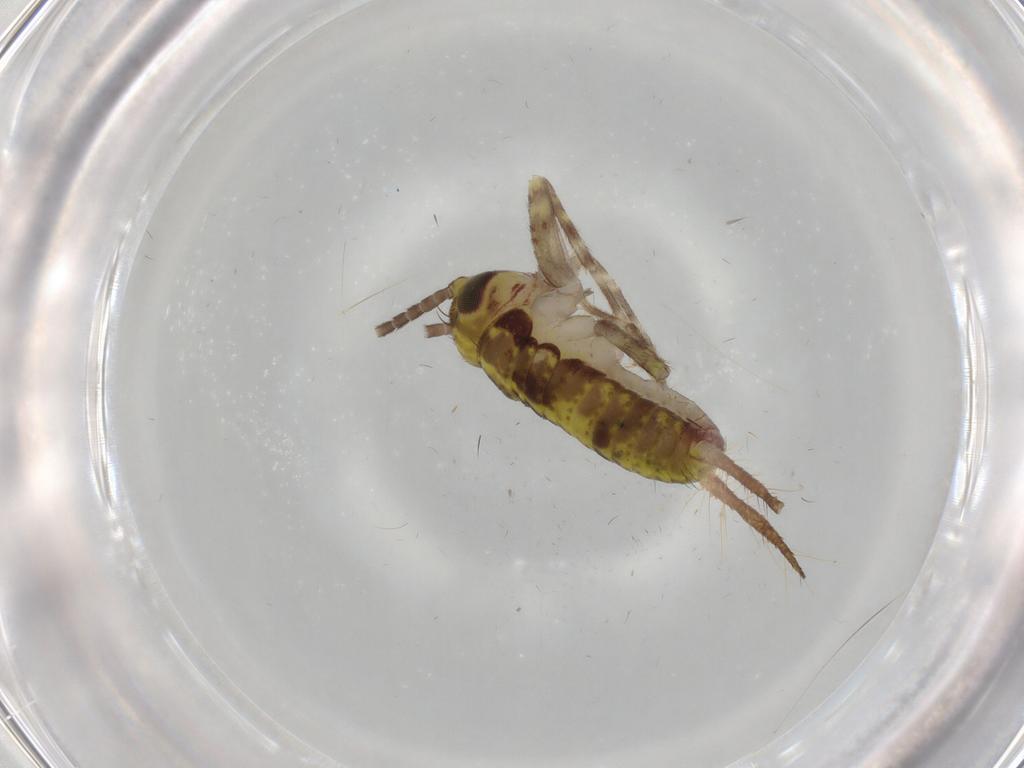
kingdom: Animalia
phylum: Arthropoda
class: Insecta
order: Orthoptera
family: Gryllidae
